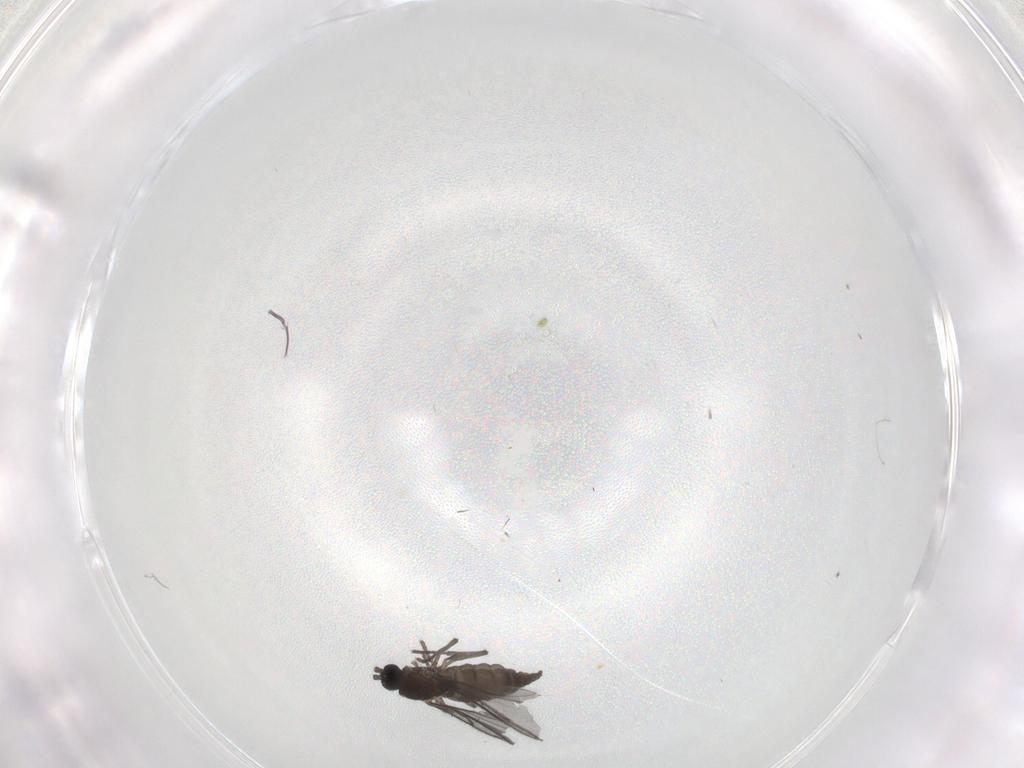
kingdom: Animalia
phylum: Arthropoda
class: Insecta
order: Diptera
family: Sciaridae
